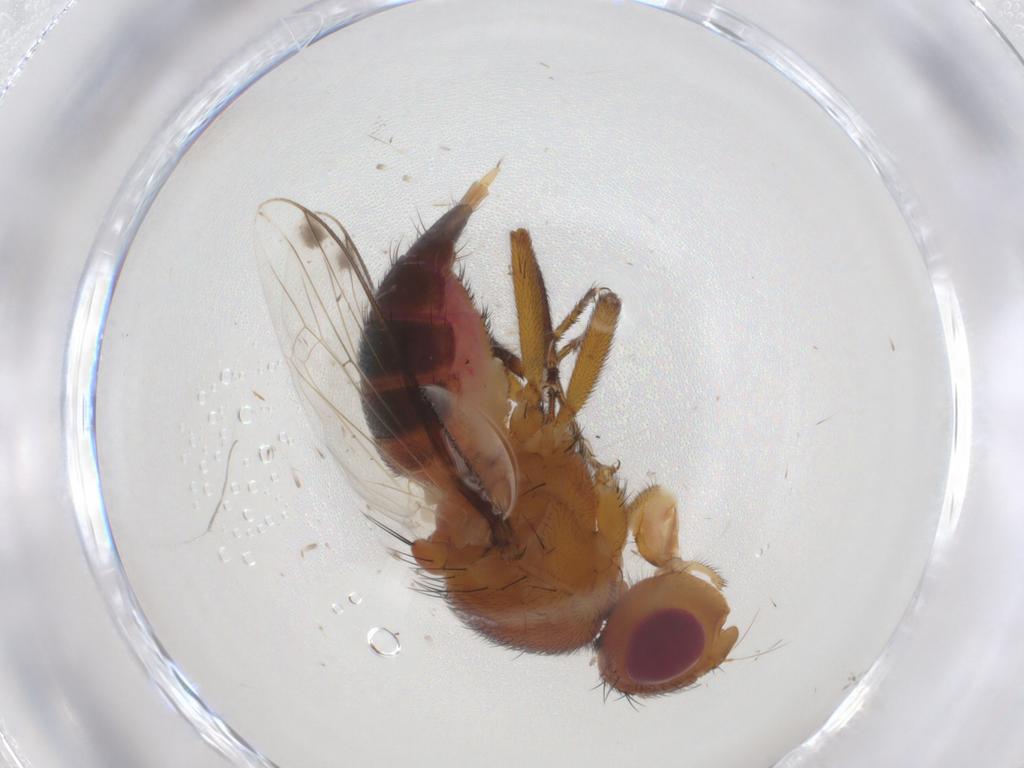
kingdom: Animalia
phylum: Arthropoda
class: Insecta
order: Diptera
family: Richardiidae
